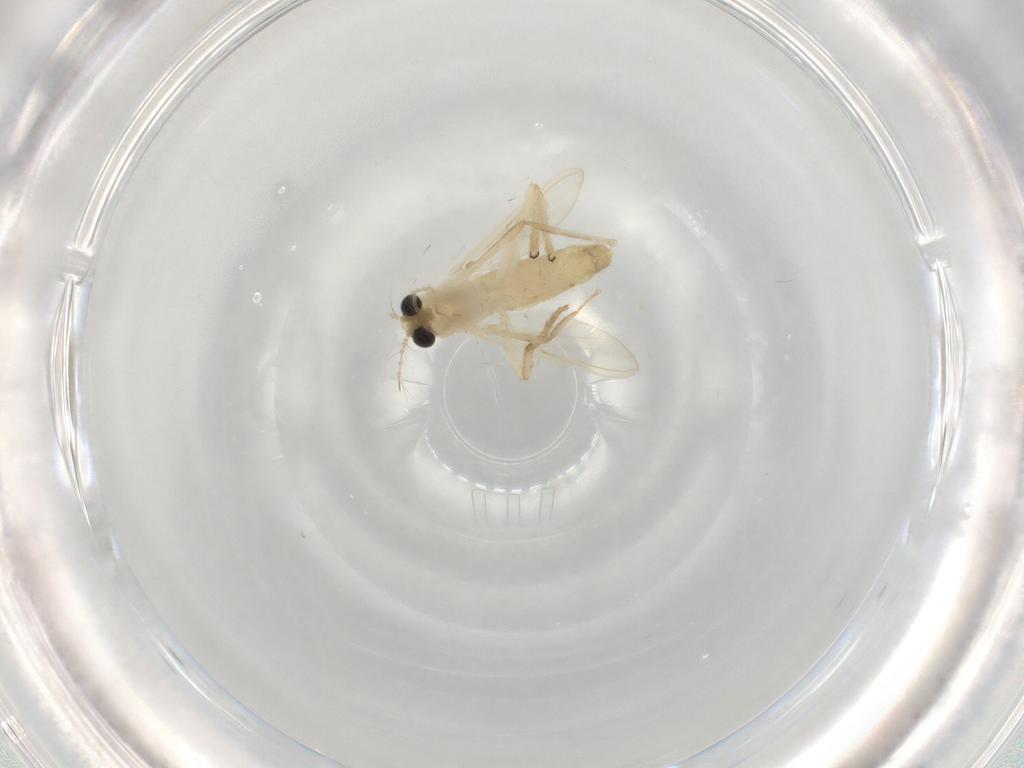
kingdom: Animalia
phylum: Arthropoda
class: Insecta
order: Diptera
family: Chironomidae
